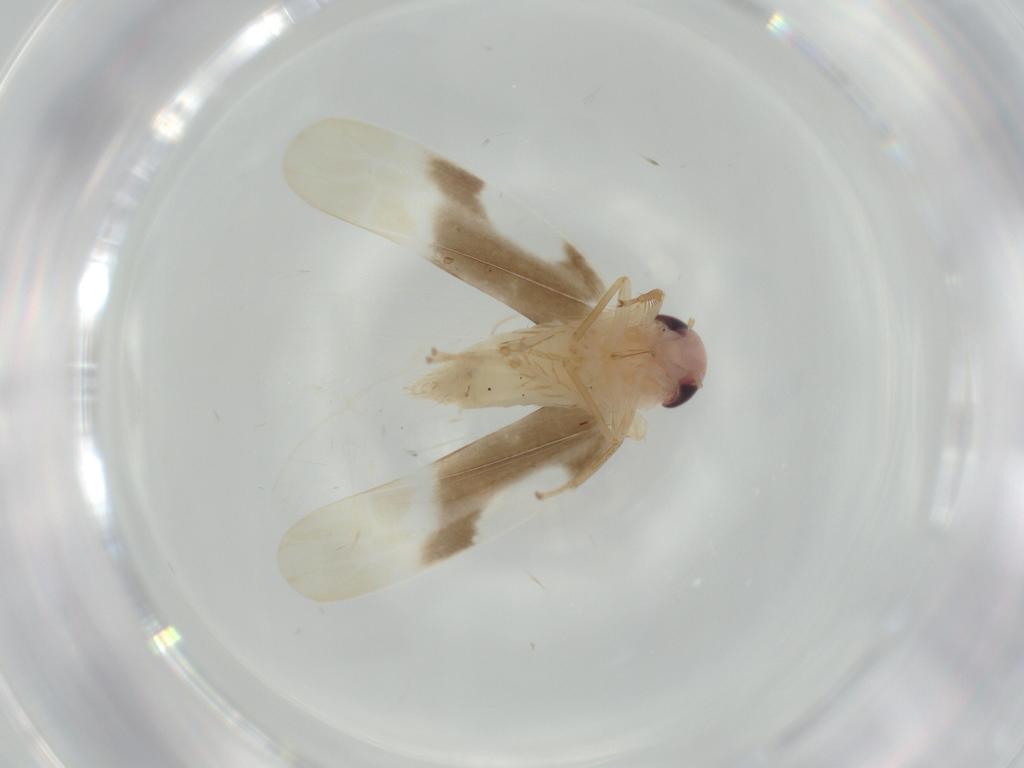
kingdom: Animalia
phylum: Arthropoda
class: Insecta
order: Hemiptera
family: Cicadellidae
